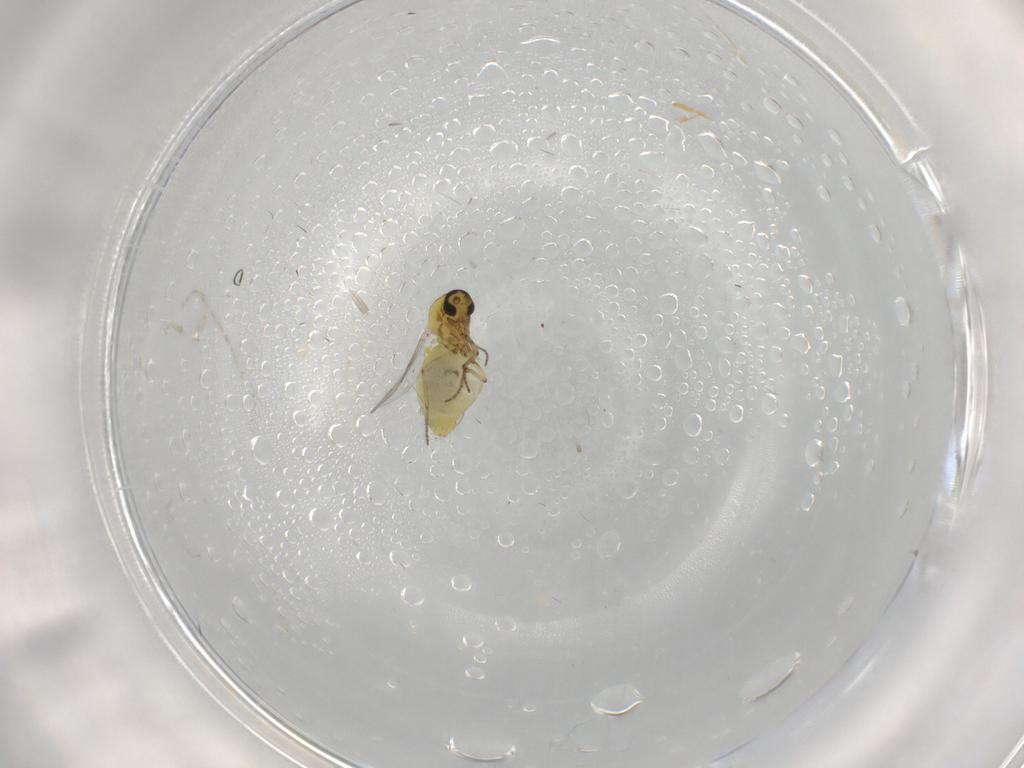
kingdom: Animalia
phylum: Arthropoda
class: Insecta
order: Diptera
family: Ceratopogonidae
